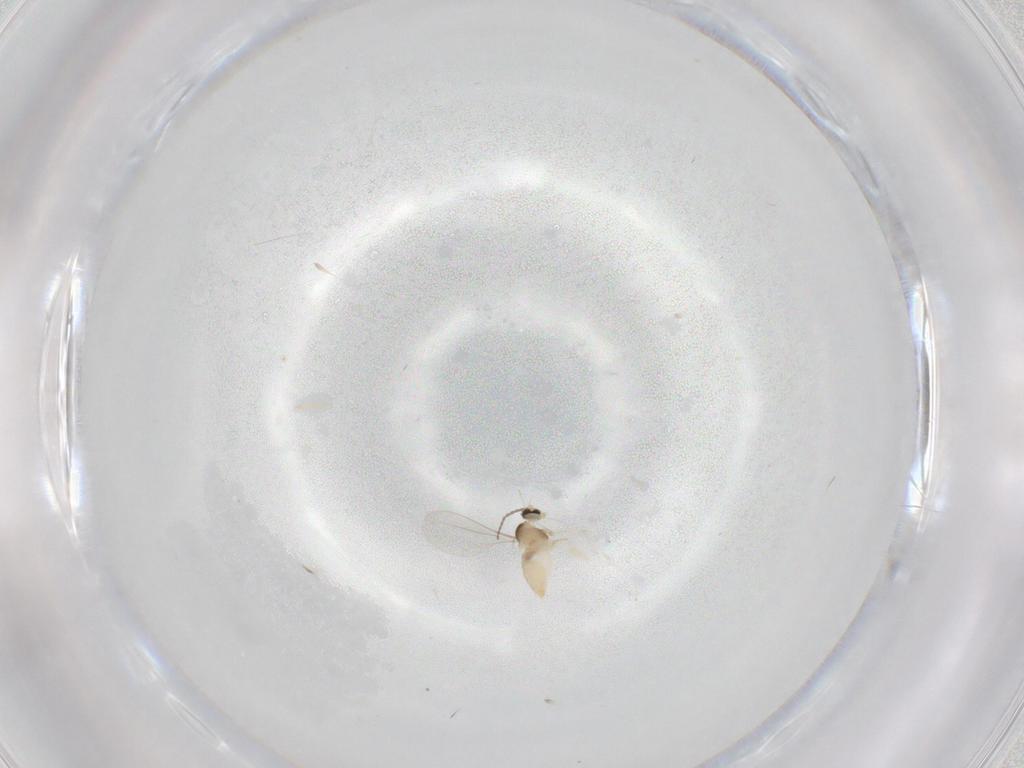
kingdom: Animalia
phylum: Arthropoda
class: Insecta
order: Diptera
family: Cecidomyiidae
